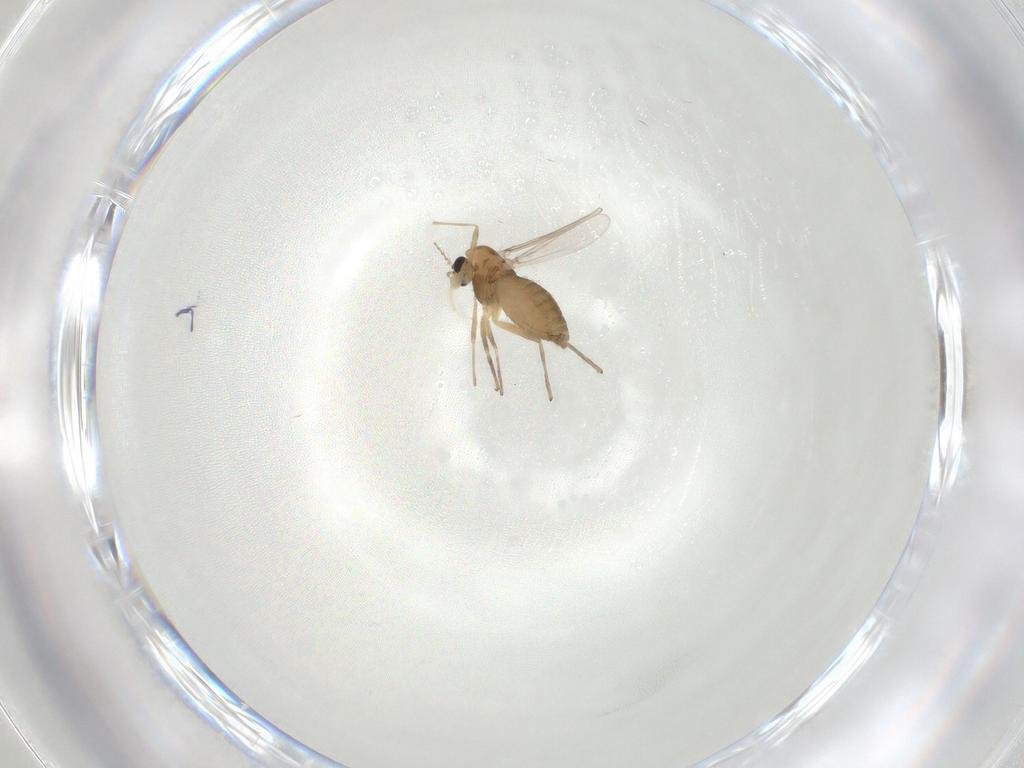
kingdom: Animalia
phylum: Arthropoda
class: Insecta
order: Diptera
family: Chironomidae
